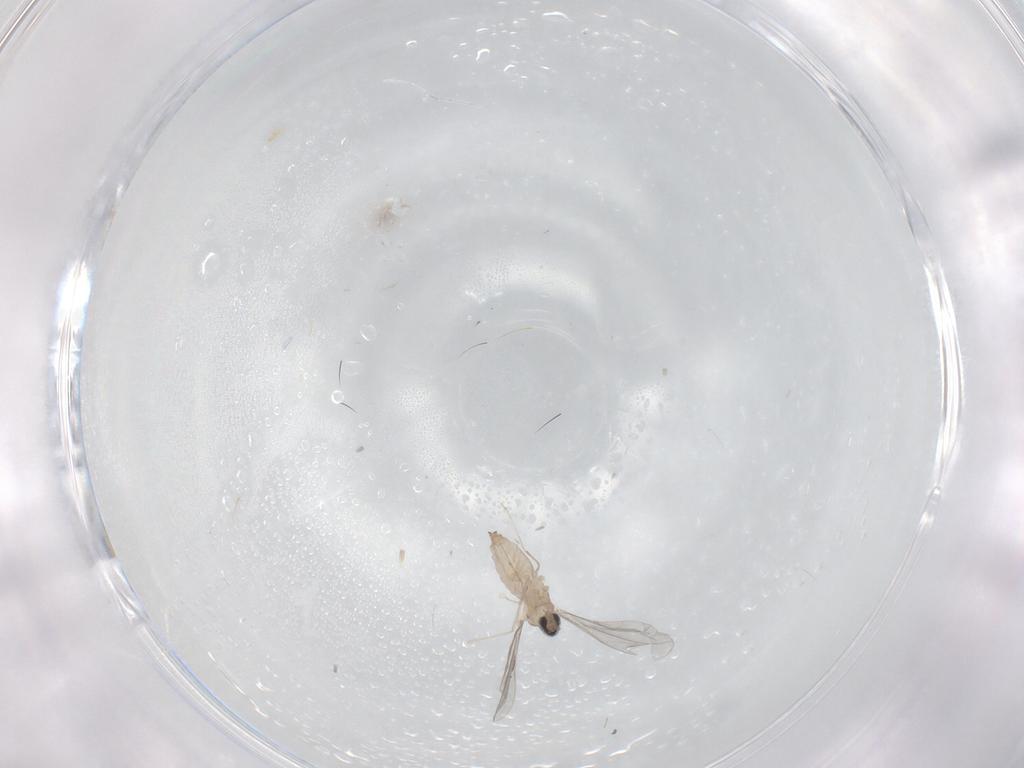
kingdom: Animalia
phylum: Arthropoda
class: Insecta
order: Diptera
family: Cecidomyiidae
